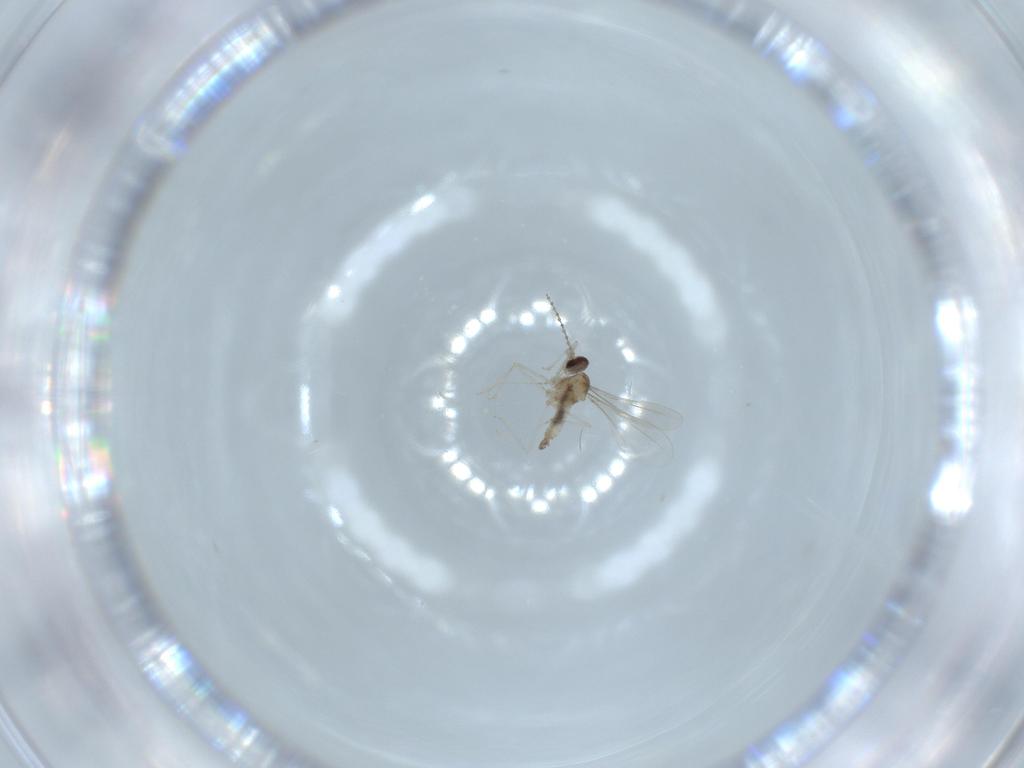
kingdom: Animalia
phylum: Arthropoda
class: Insecta
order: Diptera
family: Cecidomyiidae
